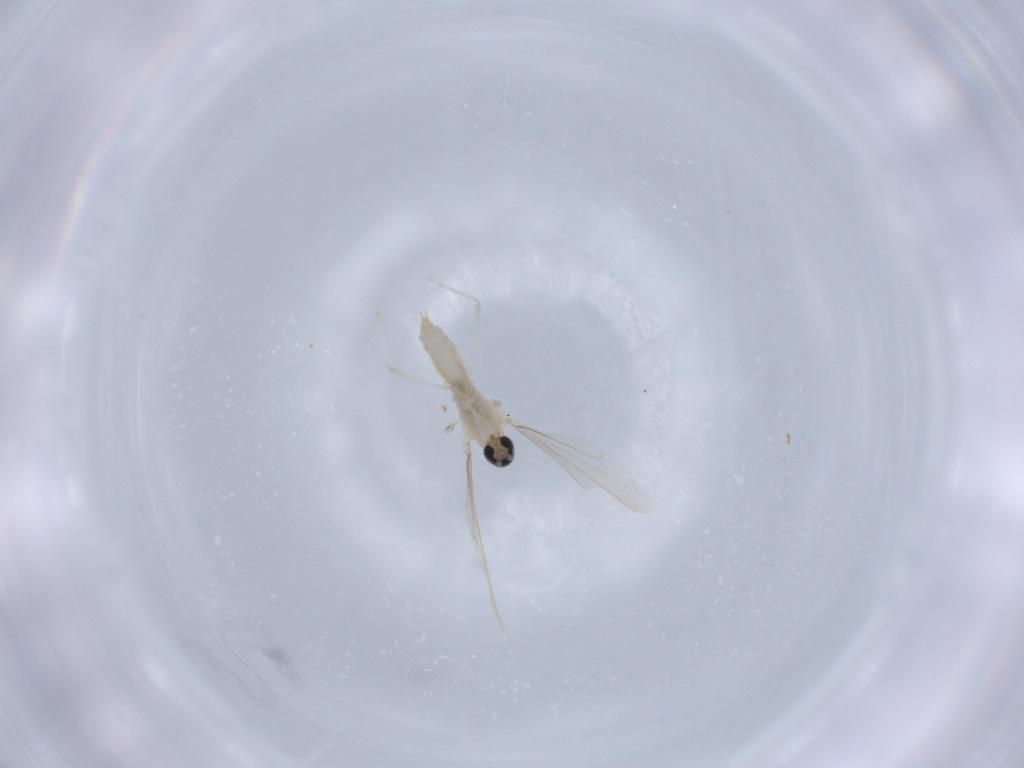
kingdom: Animalia
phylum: Arthropoda
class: Insecta
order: Diptera
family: Cecidomyiidae
